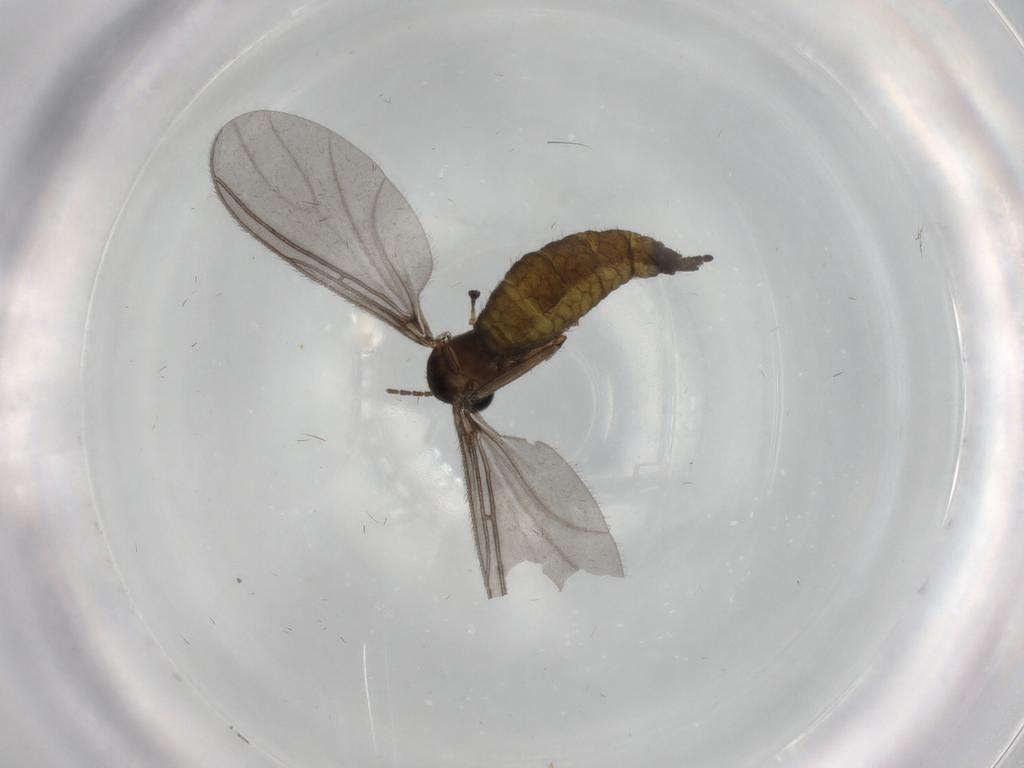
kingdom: Animalia
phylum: Arthropoda
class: Insecta
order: Diptera
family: Sciaridae
